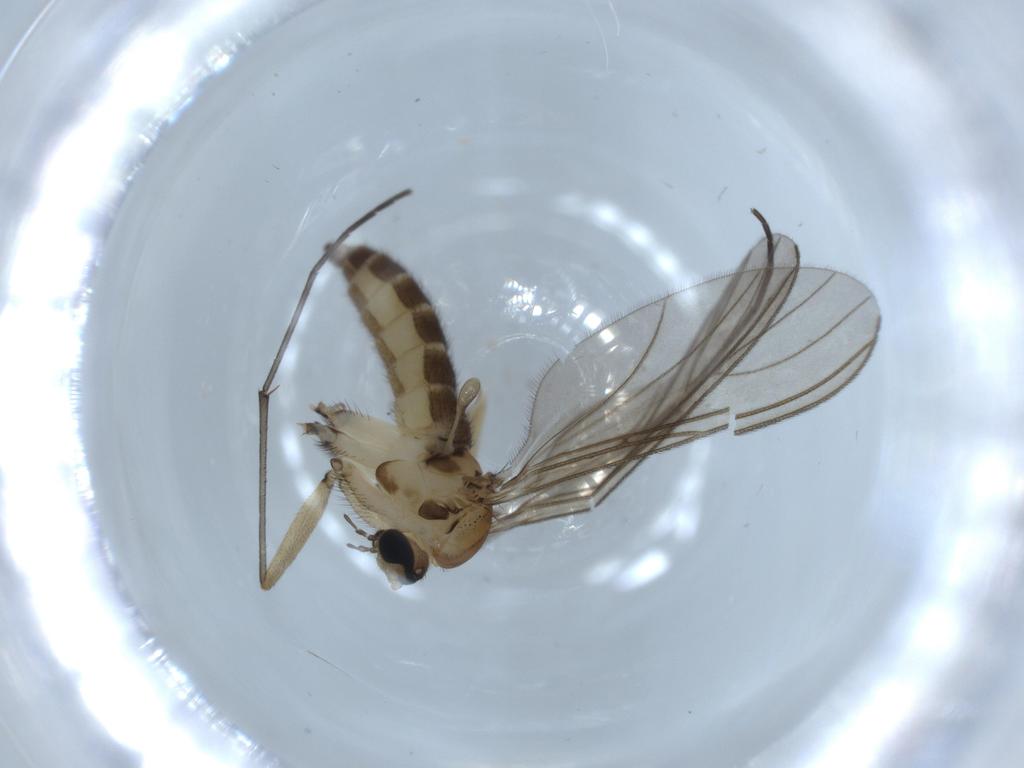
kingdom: Animalia
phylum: Arthropoda
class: Insecta
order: Diptera
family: Sciaridae
